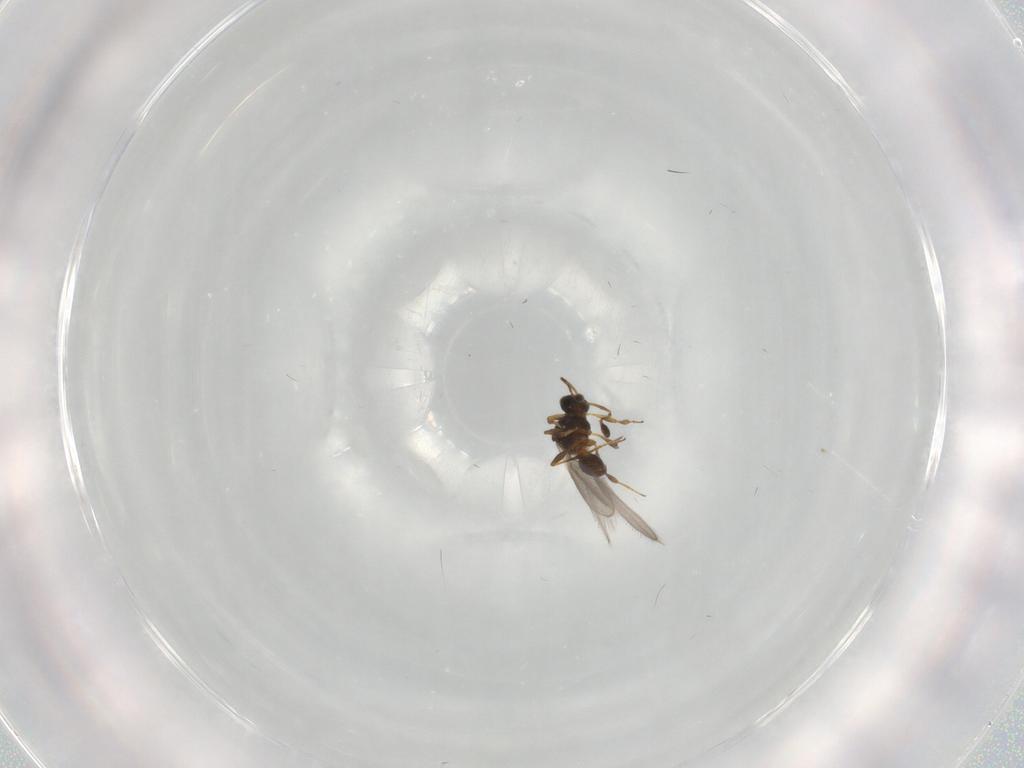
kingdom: Animalia
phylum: Arthropoda
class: Insecta
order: Hymenoptera
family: Platygastridae
